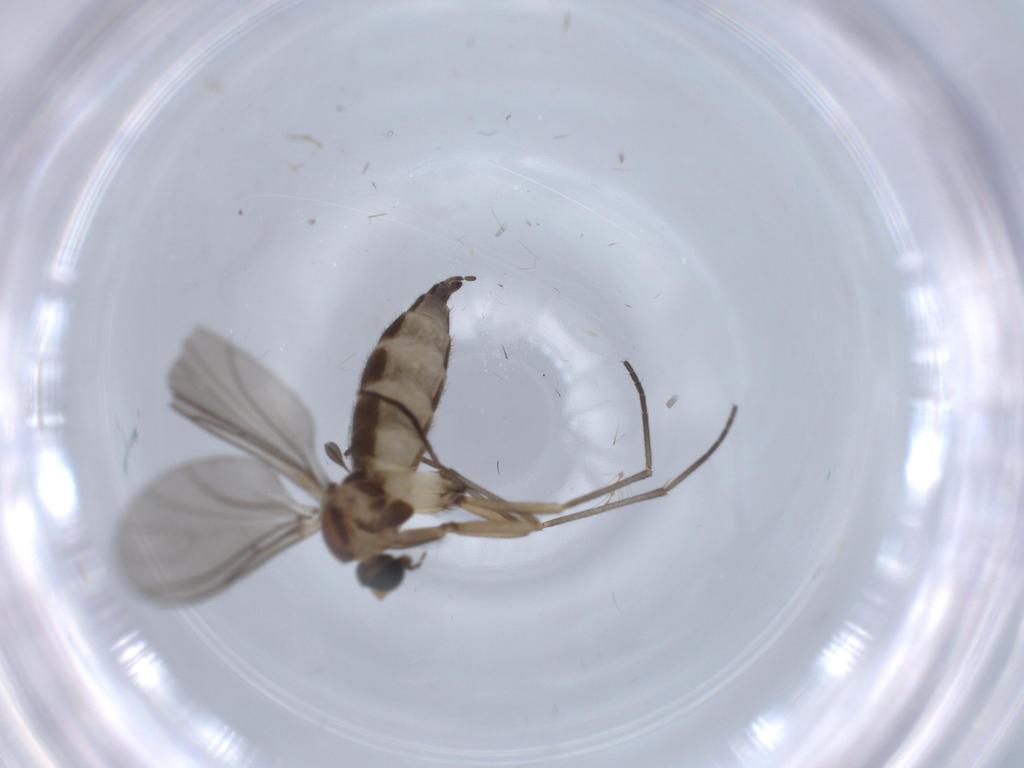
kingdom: Animalia
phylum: Arthropoda
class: Insecta
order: Diptera
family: Sciaridae
